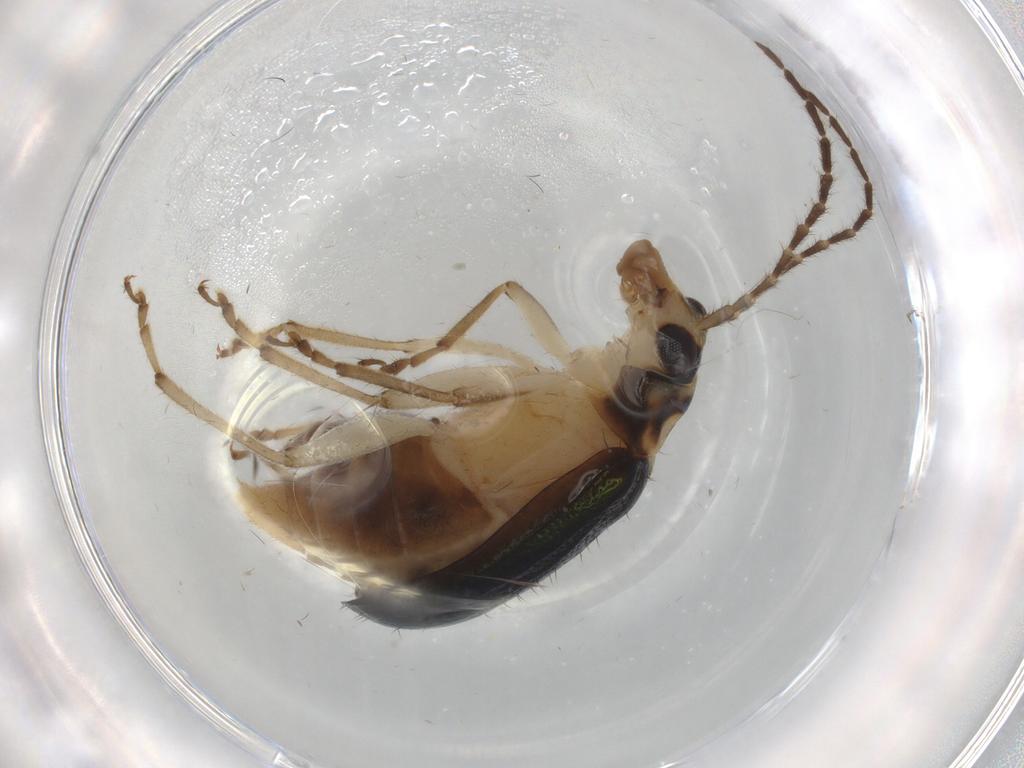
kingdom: Animalia
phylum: Arthropoda
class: Insecta
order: Coleoptera
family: Chrysomelidae
